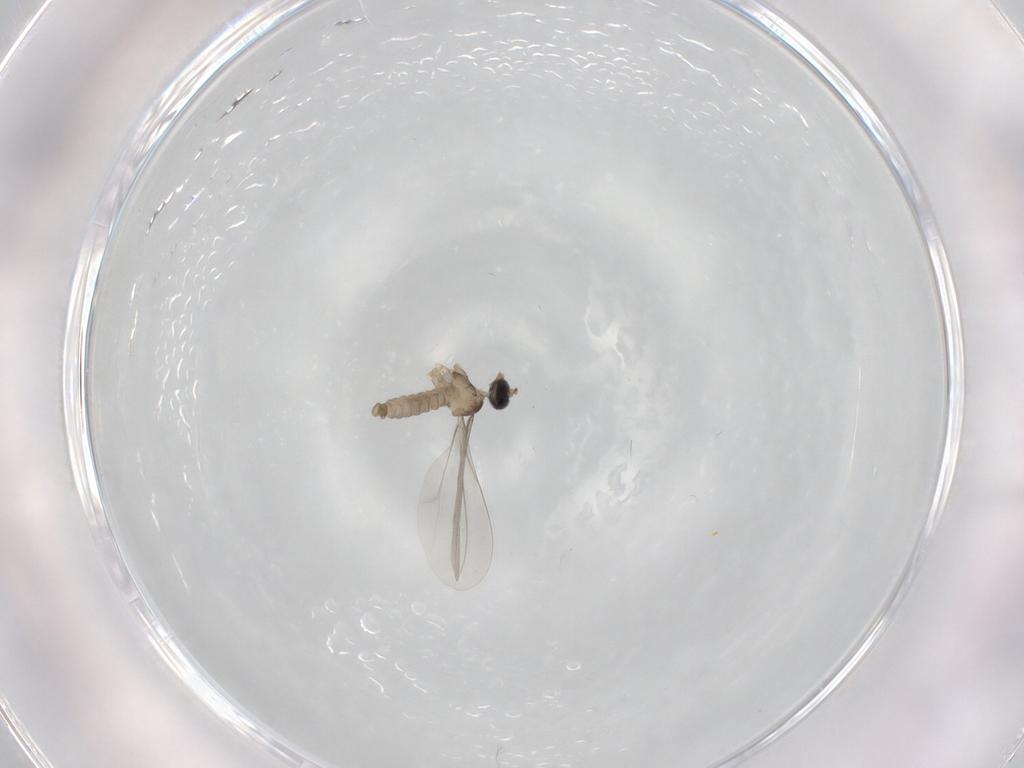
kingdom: Animalia
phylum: Arthropoda
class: Insecta
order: Diptera
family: Cecidomyiidae
